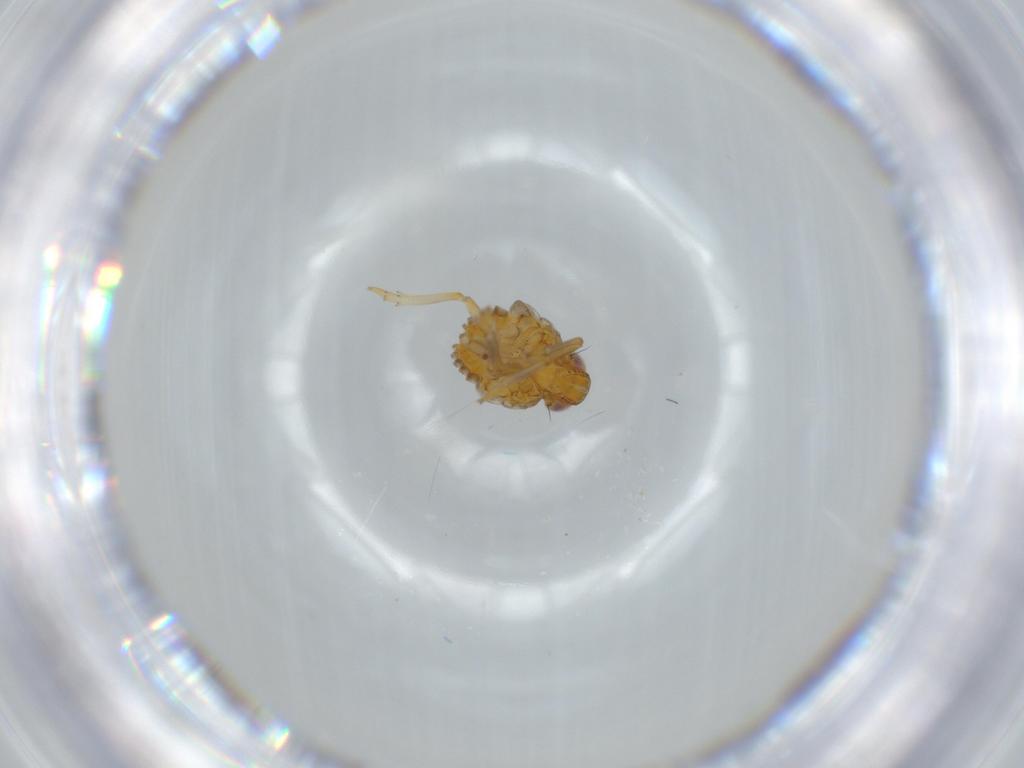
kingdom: Animalia
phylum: Arthropoda
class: Insecta
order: Hemiptera
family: Issidae
